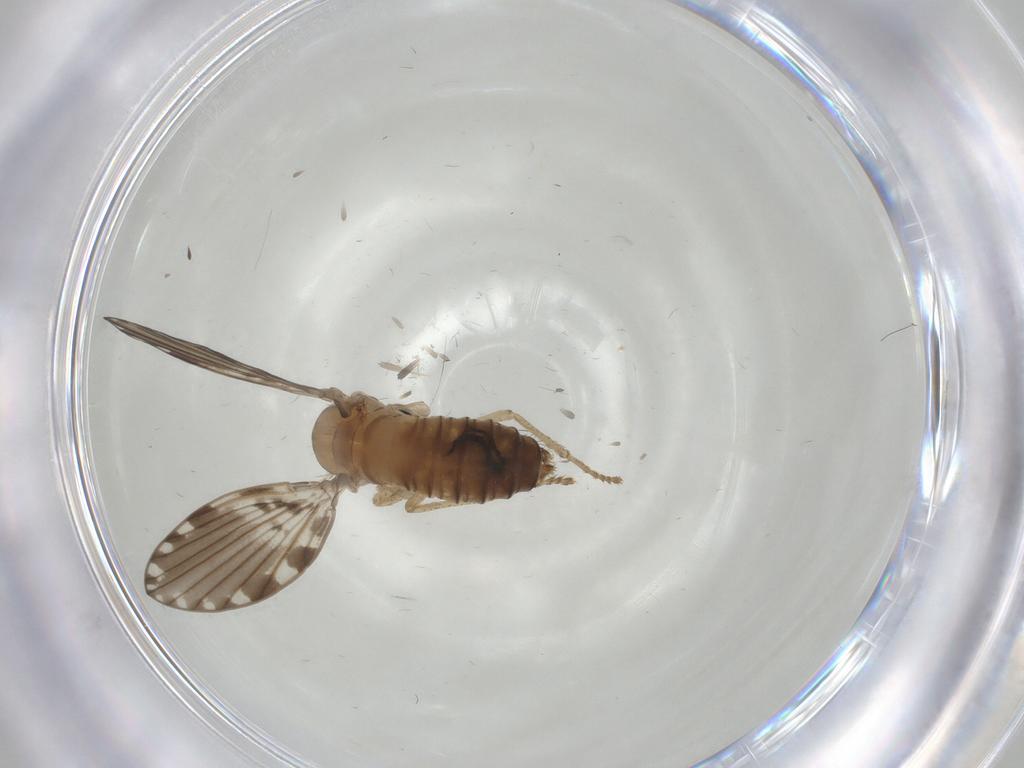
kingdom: Animalia
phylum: Arthropoda
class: Insecta
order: Diptera
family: Psychodidae
